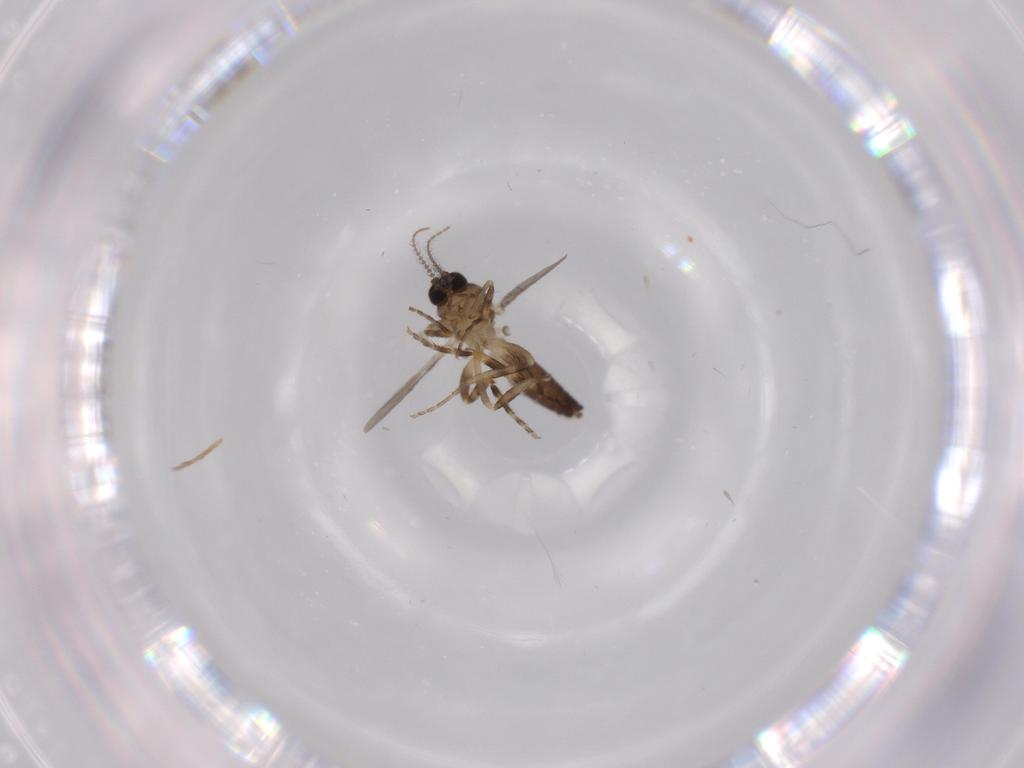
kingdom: Animalia
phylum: Arthropoda
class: Insecta
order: Diptera
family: Ceratopogonidae
